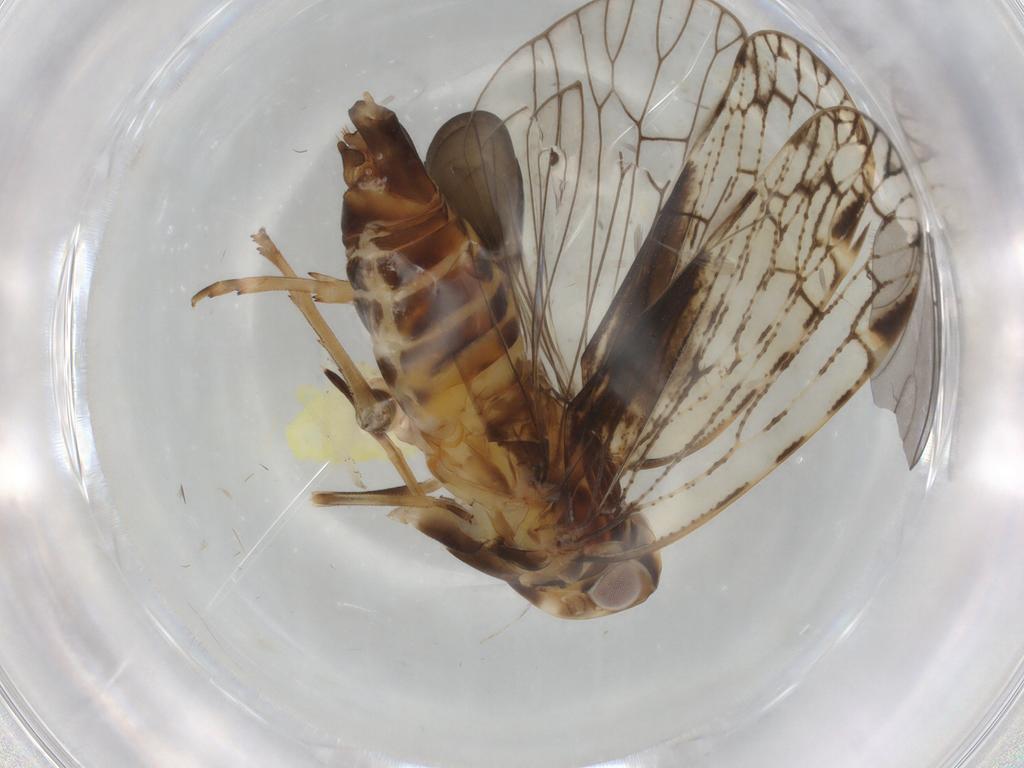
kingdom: Animalia
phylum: Arthropoda
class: Insecta
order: Hemiptera
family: Cixiidae
